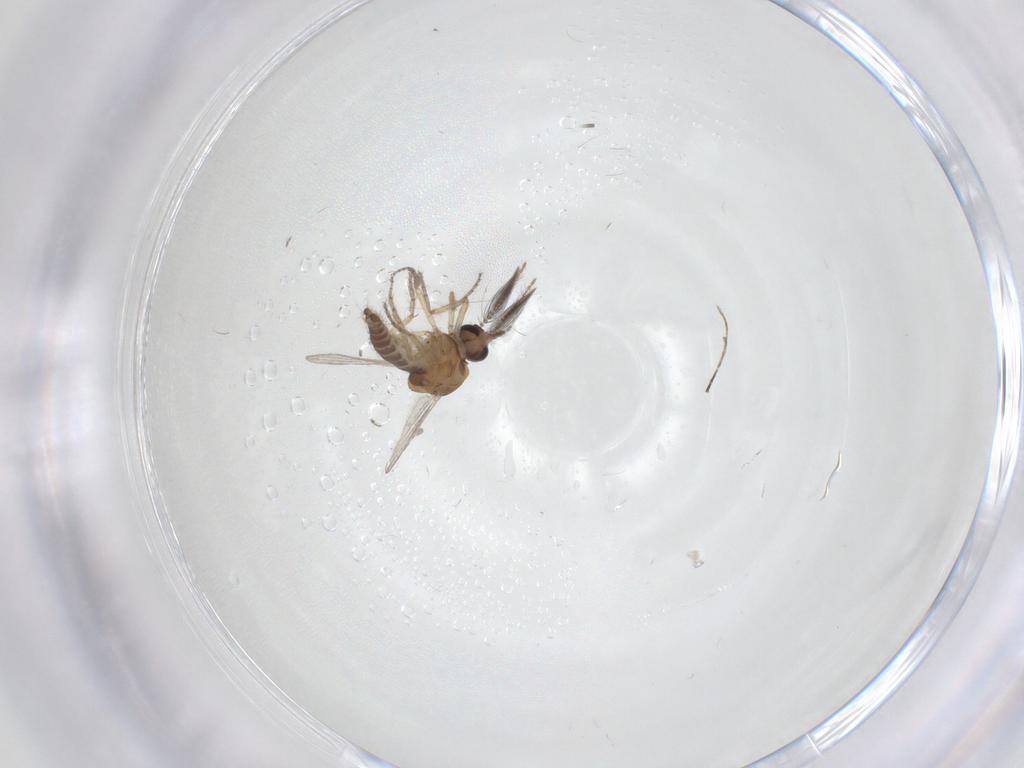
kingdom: Animalia
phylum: Arthropoda
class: Insecta
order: Diptera
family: Ceratopogonidae
